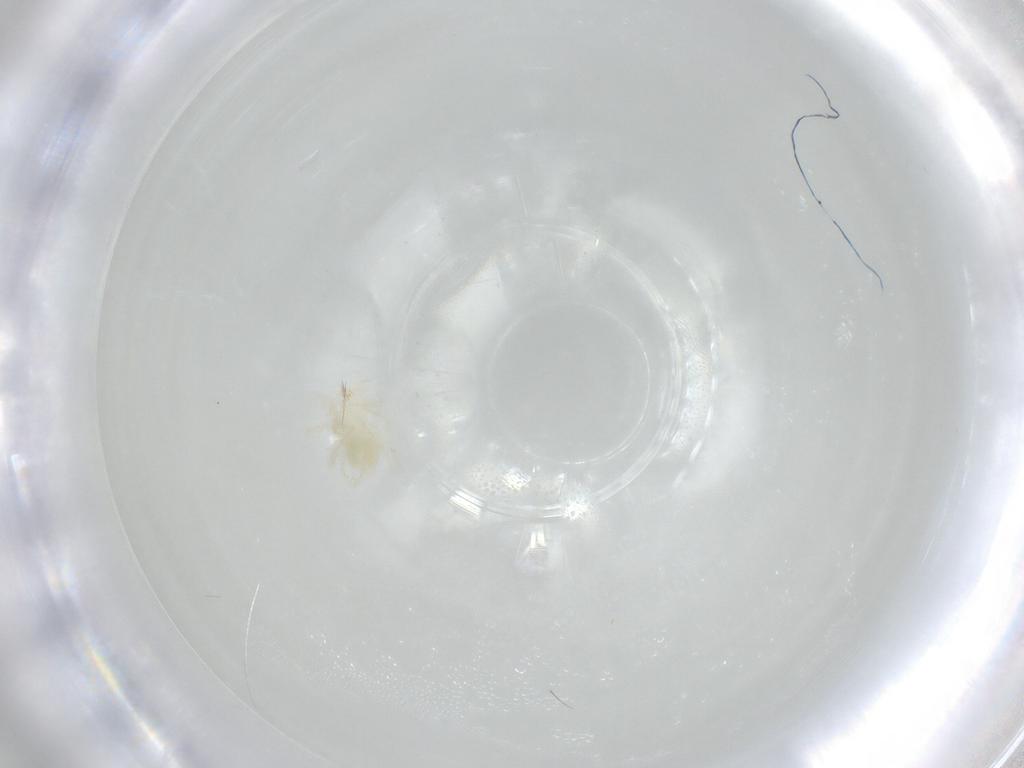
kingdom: Animalia
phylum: Arthropoda
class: Arachnida
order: Trombidiformes
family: Anystidae
